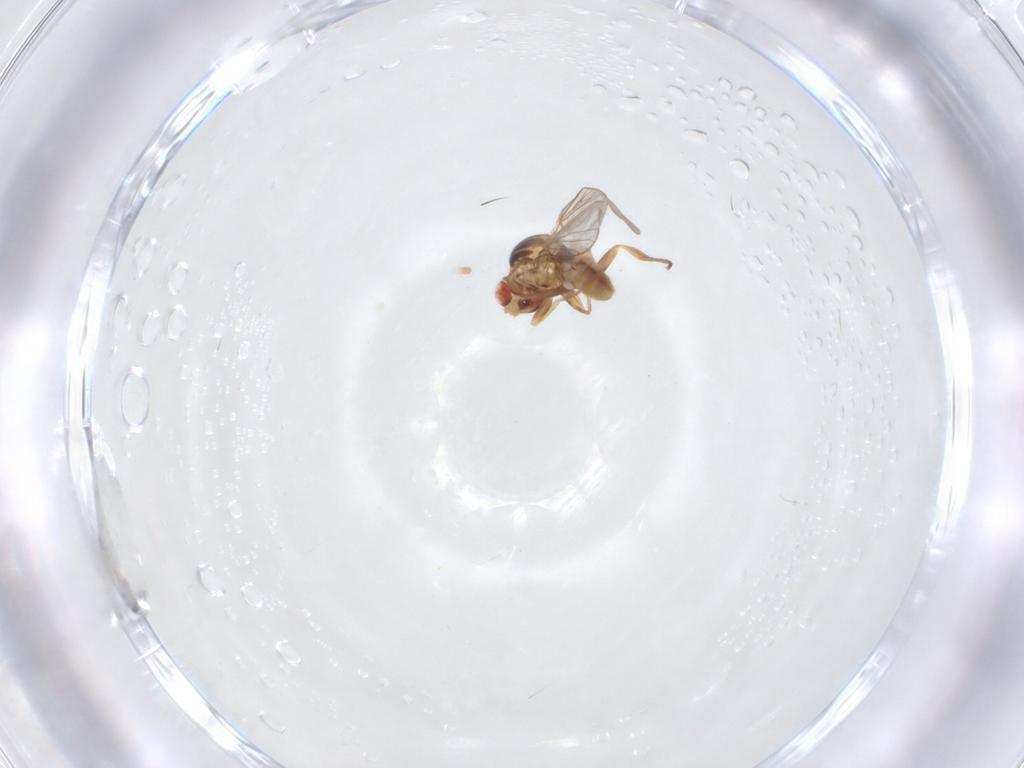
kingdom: Animalia
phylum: Arthropoda
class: Insecta
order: Diptera
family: Chloropidae
